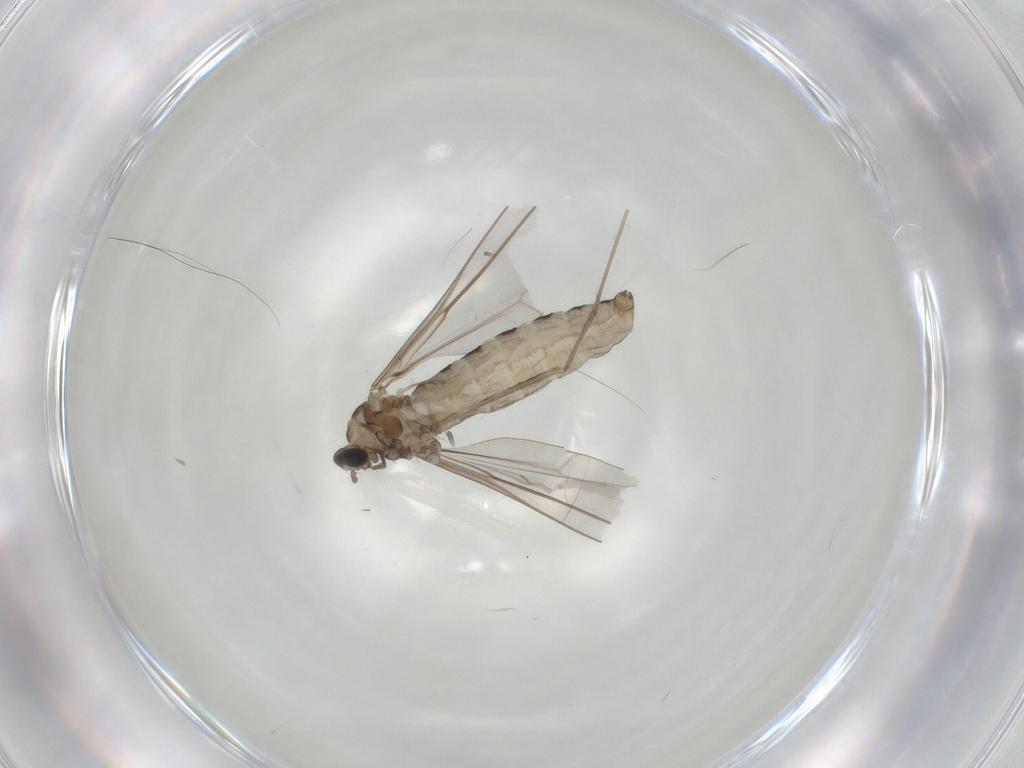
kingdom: Animalia
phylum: Arthropoda
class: Insecta
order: Diptera
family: Cecidomyiidae
